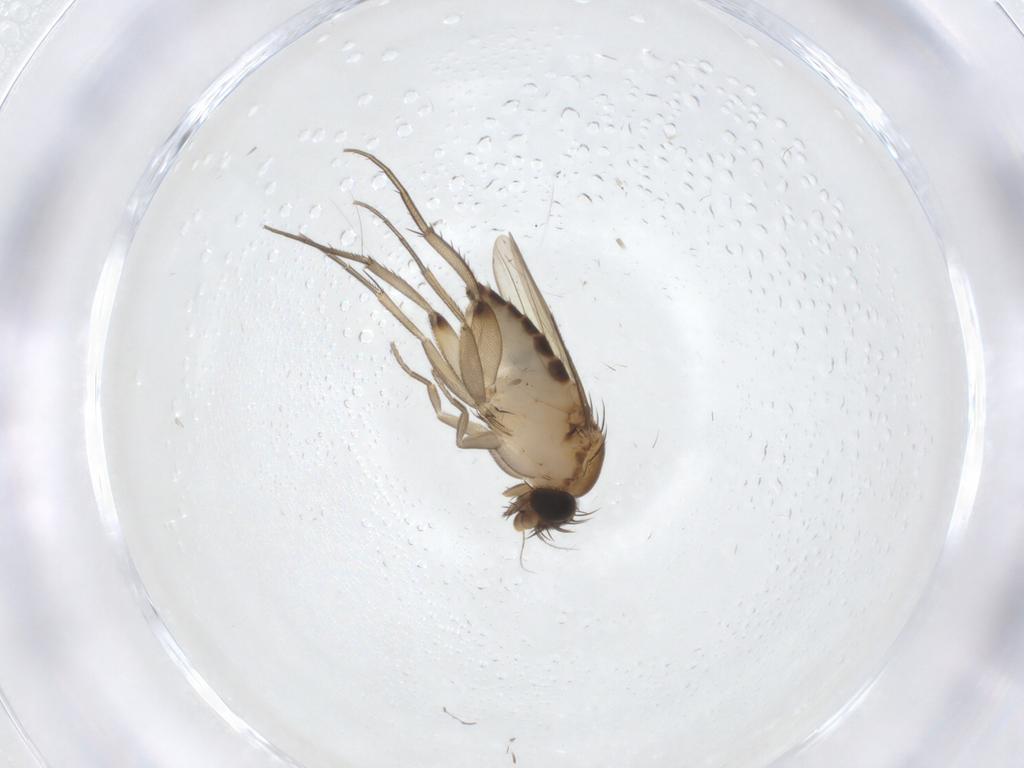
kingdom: Animalia
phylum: Arthropoda
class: Insecta
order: Diptera
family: Phoridae
